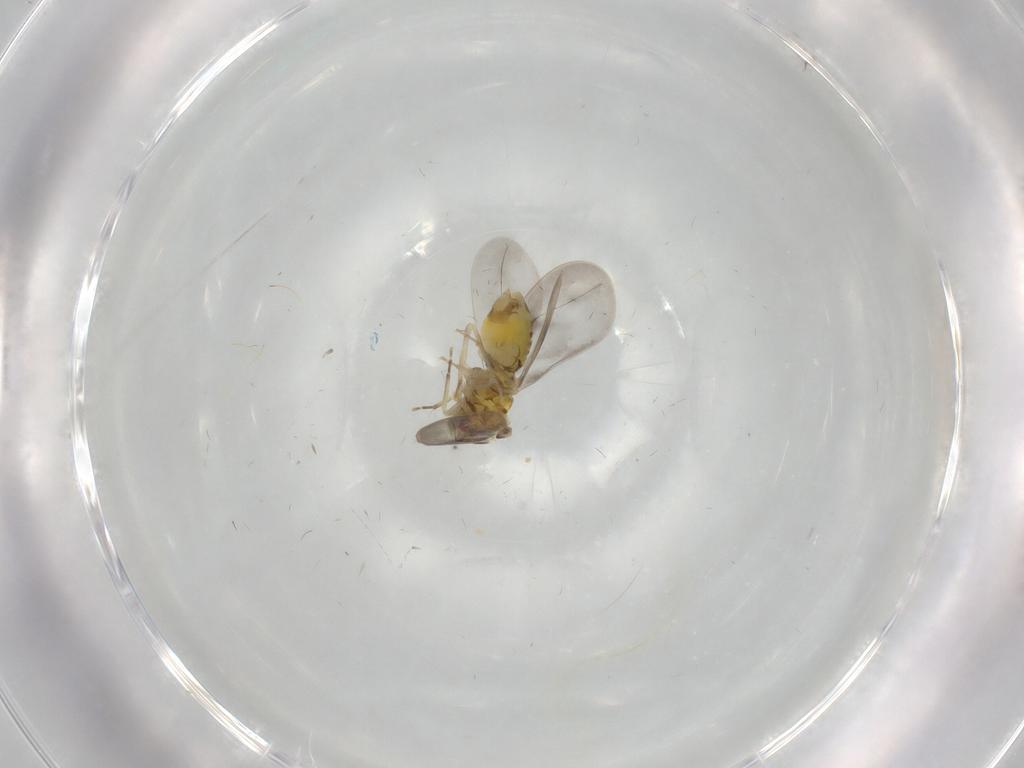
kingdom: Animalia
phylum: Arthropoda
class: Insecta
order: Hemiptera
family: Aleyrodidae
